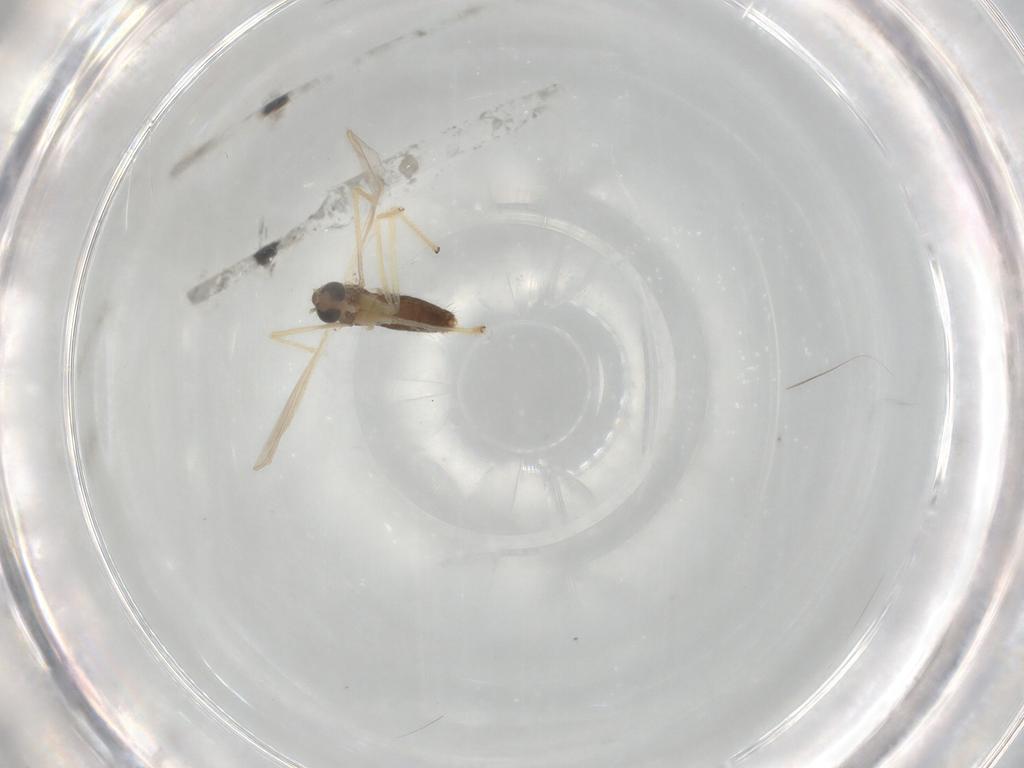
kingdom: Animalia
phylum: Arthropoda
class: Insecta
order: Diptera
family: Chironomidae
